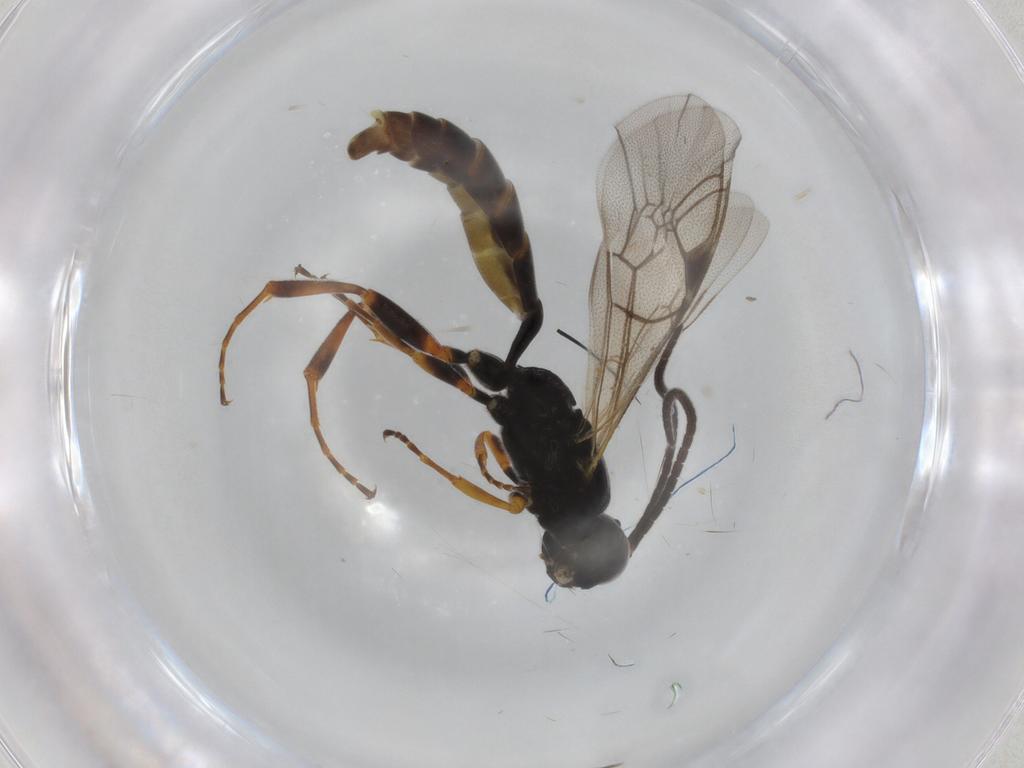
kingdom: Animalia
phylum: Arthropoda
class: Insecta
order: Hymenoptera
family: Ichneumonidae
